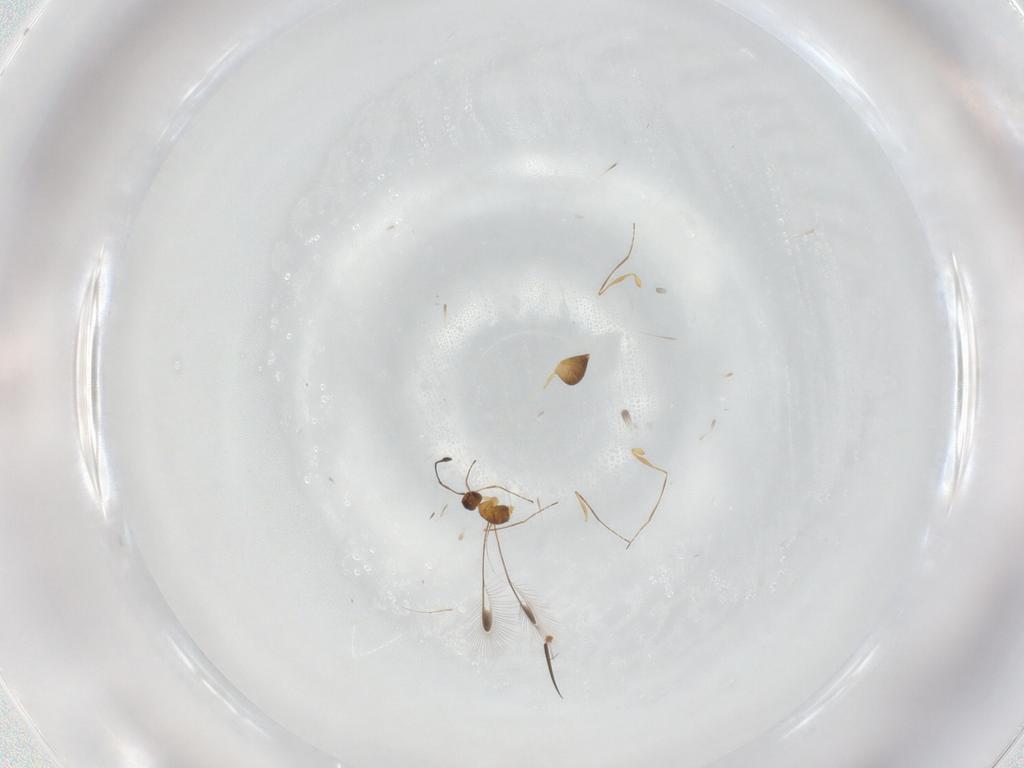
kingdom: Animalia
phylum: Arthropoda
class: Insecta
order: Hymenoptera
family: Mymaridae
